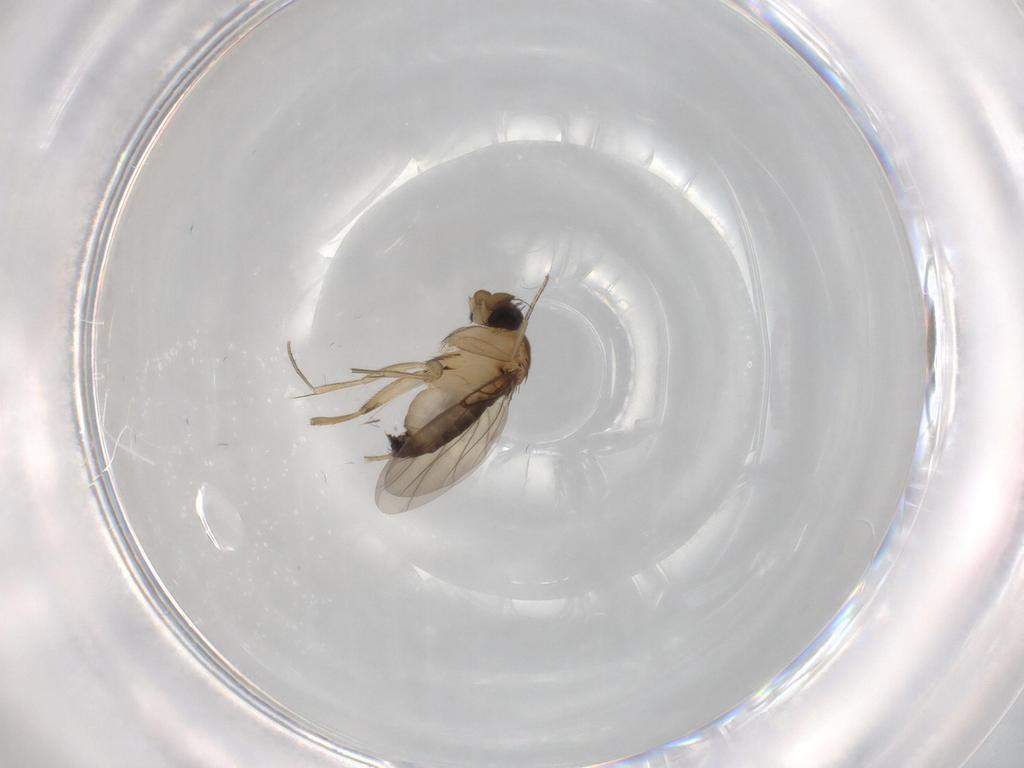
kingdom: Animalia
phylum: Arthropoda
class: Insecta
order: Diptera
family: Phoridae
